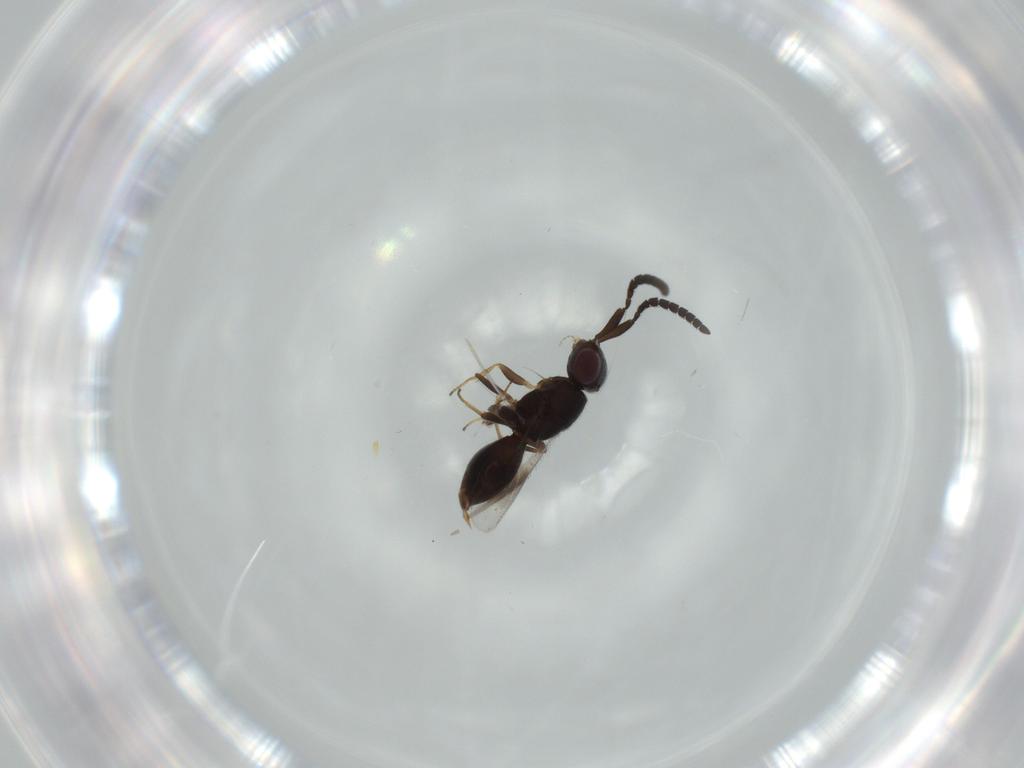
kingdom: Animalia
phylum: Arthropoda
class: Insecta
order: Hymenoptera
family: Megaspilidae
